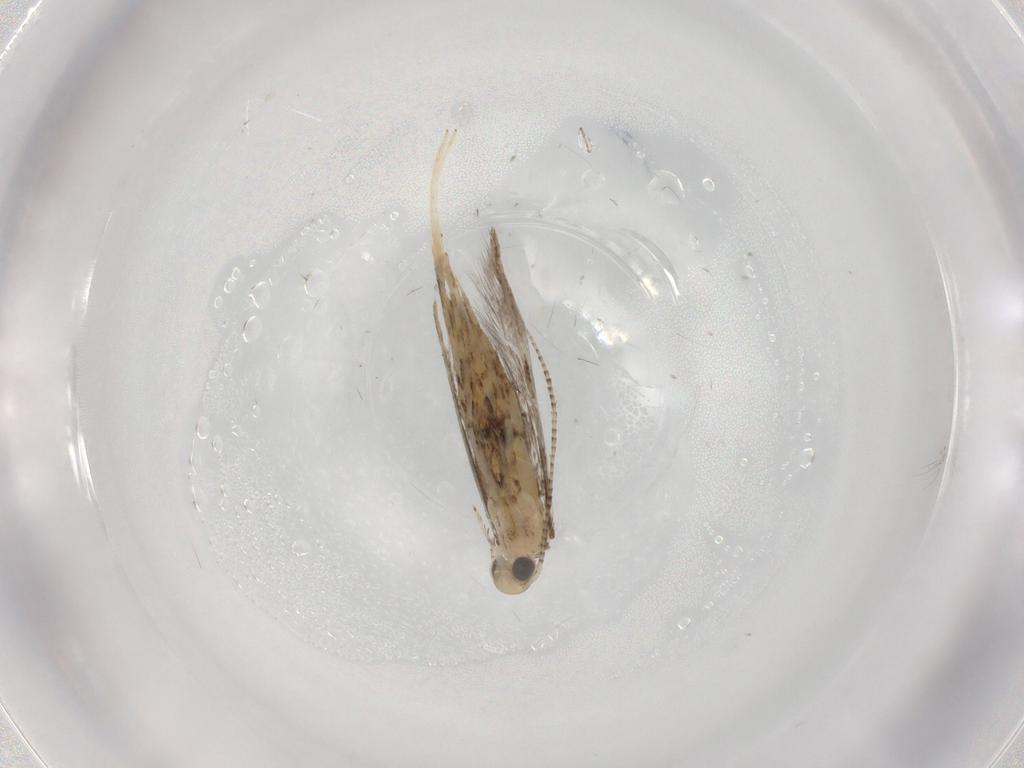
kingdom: Animalia
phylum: Arthropoda
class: Insecta
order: Lepidoptera
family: Gracillariidae
